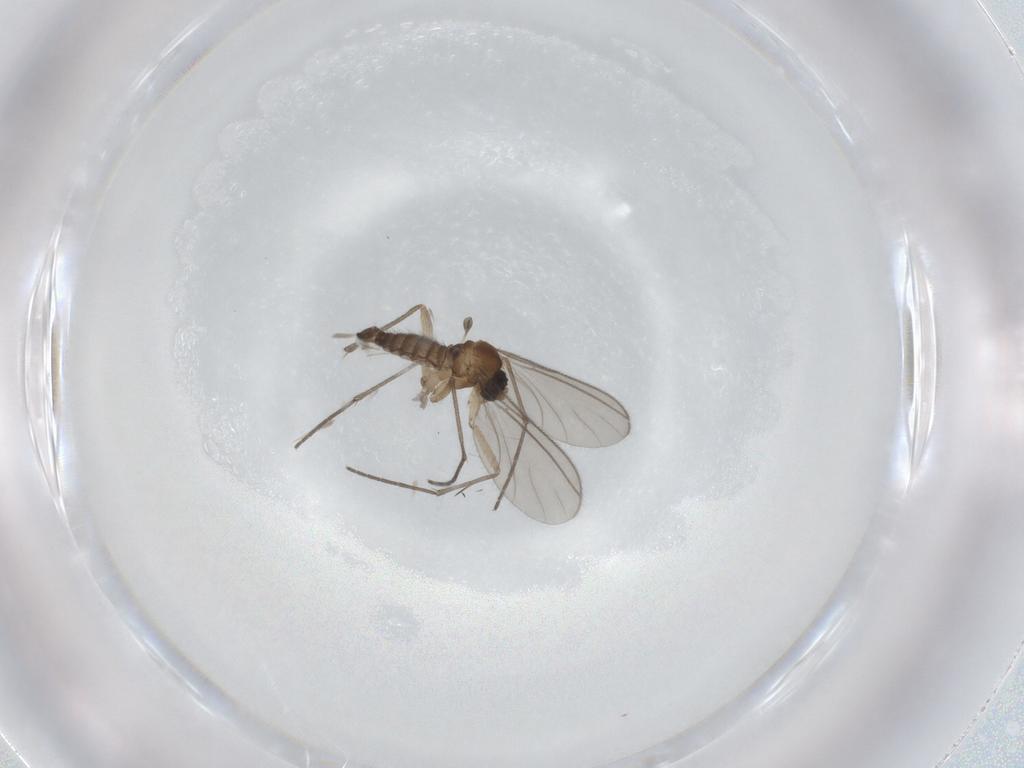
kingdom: Animalia
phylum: Arthropoda
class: Insecta
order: Diptera
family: Sciaridae
